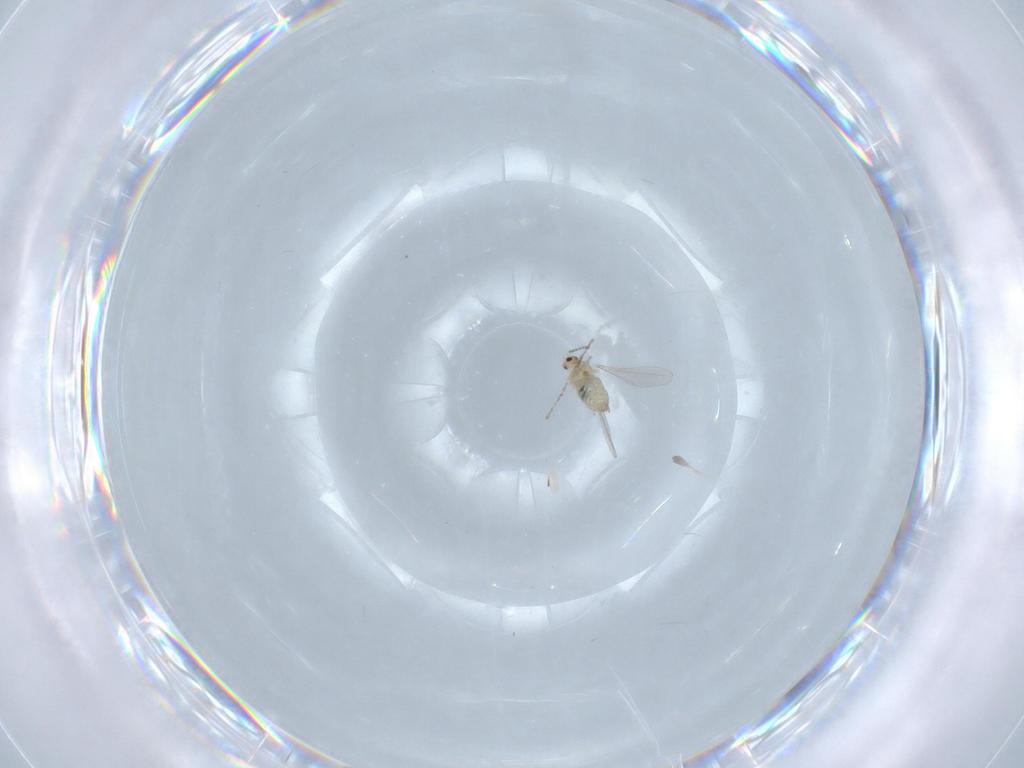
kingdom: Animalia
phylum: Arthropoda
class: Insecta
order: Diptera
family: Cecidomyiidae
